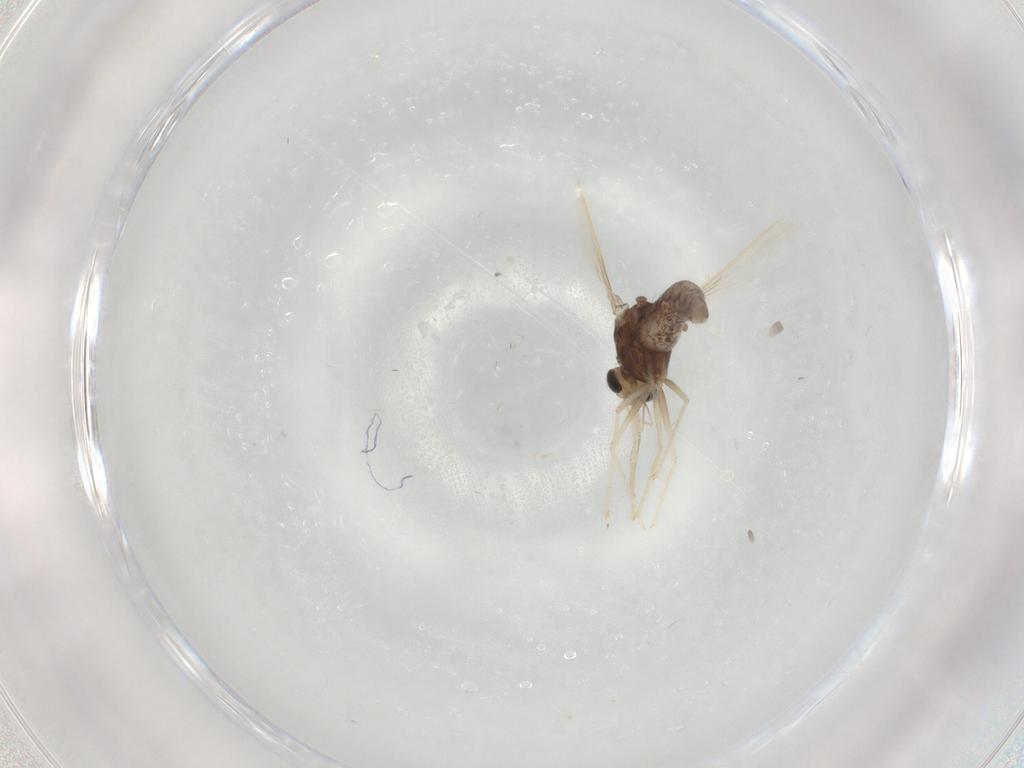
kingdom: Animalia
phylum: Arthropoda
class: Insecta
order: Diptera
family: Chironomidae
